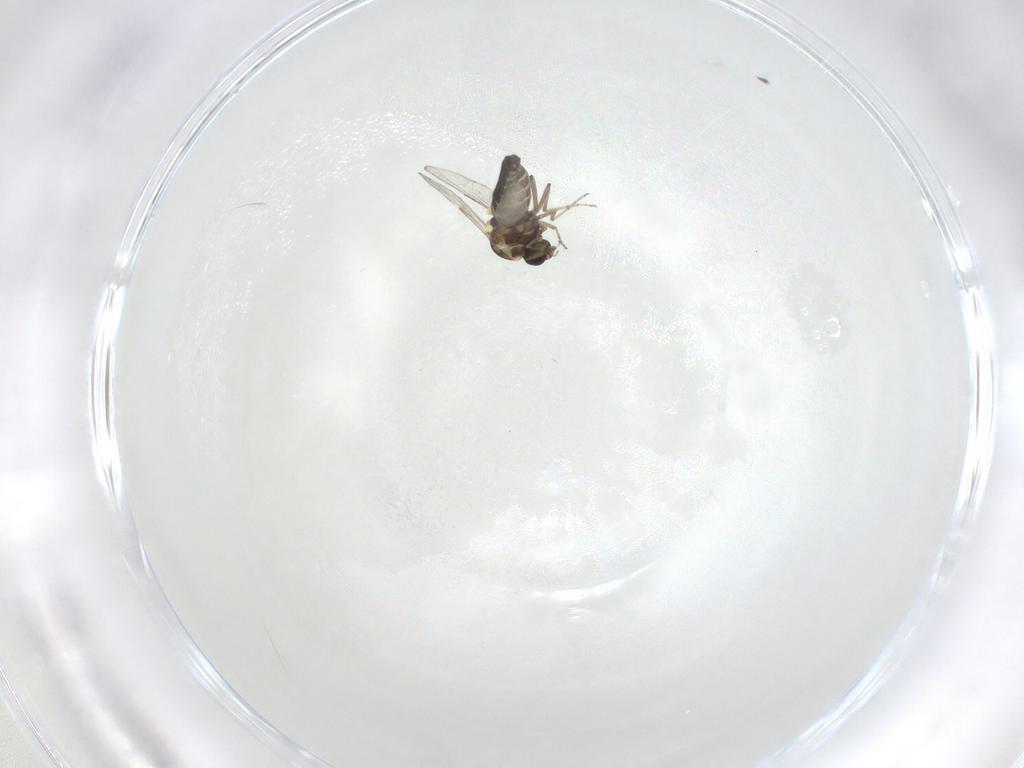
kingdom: Animalia
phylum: Arthropoda
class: Insecta
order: Diptera
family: Ceratopogonidae
